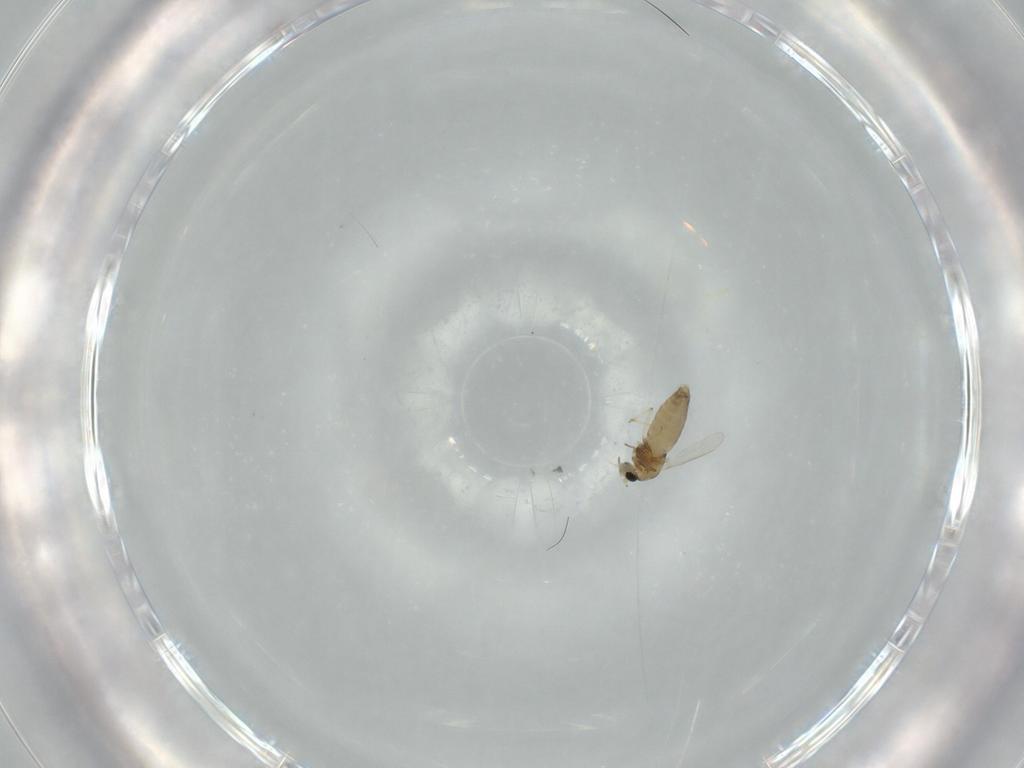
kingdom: Animalia
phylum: Arthropoda
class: Insecta
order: Diptera
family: Chironomidae
